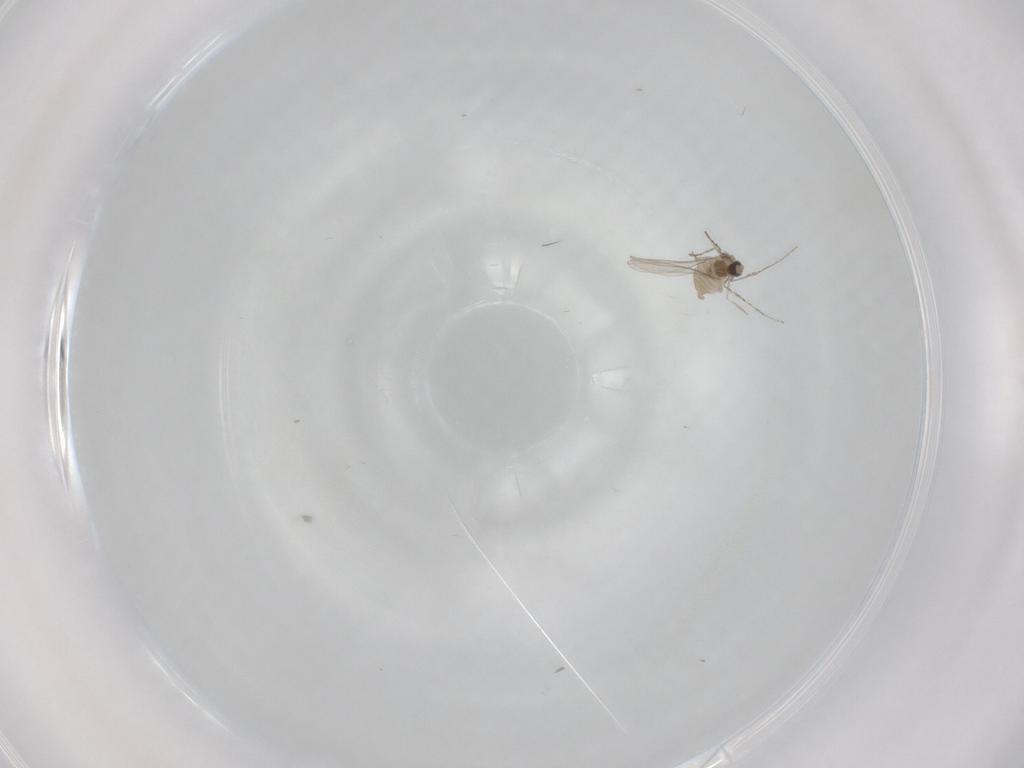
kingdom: Animalia
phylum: Arthropoda
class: Insecta
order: Diptera
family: Cecidomyiidae
